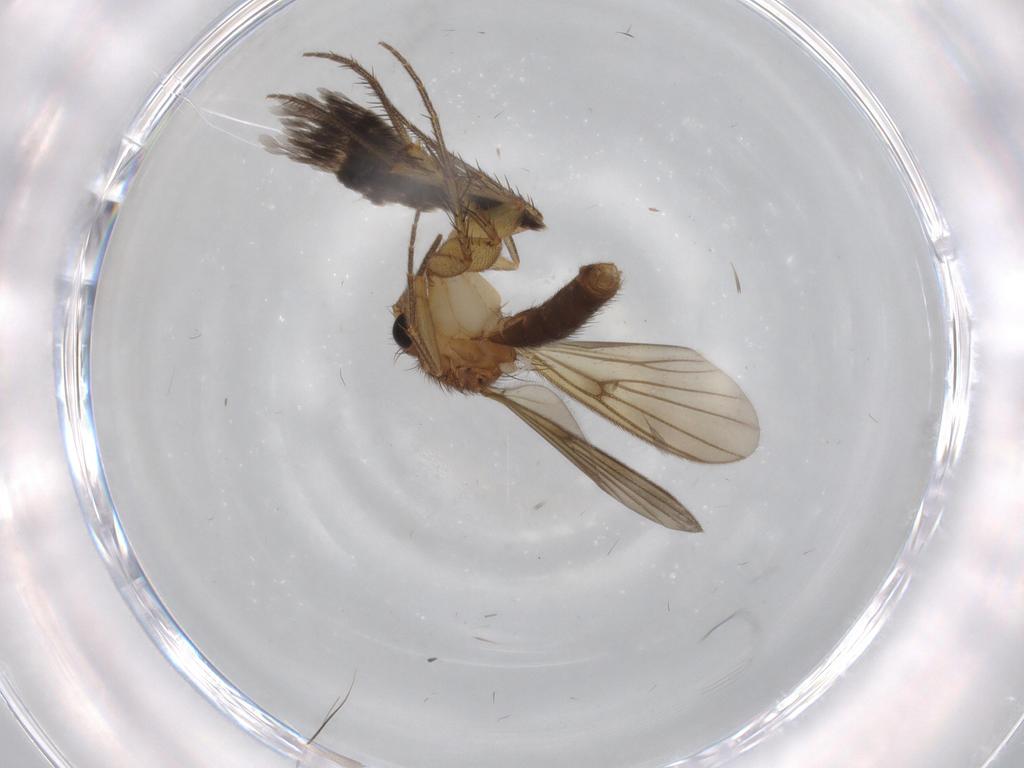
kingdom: Animalia
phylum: Arthropoda
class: Insecta
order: Diptera
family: Mycetophilidae
